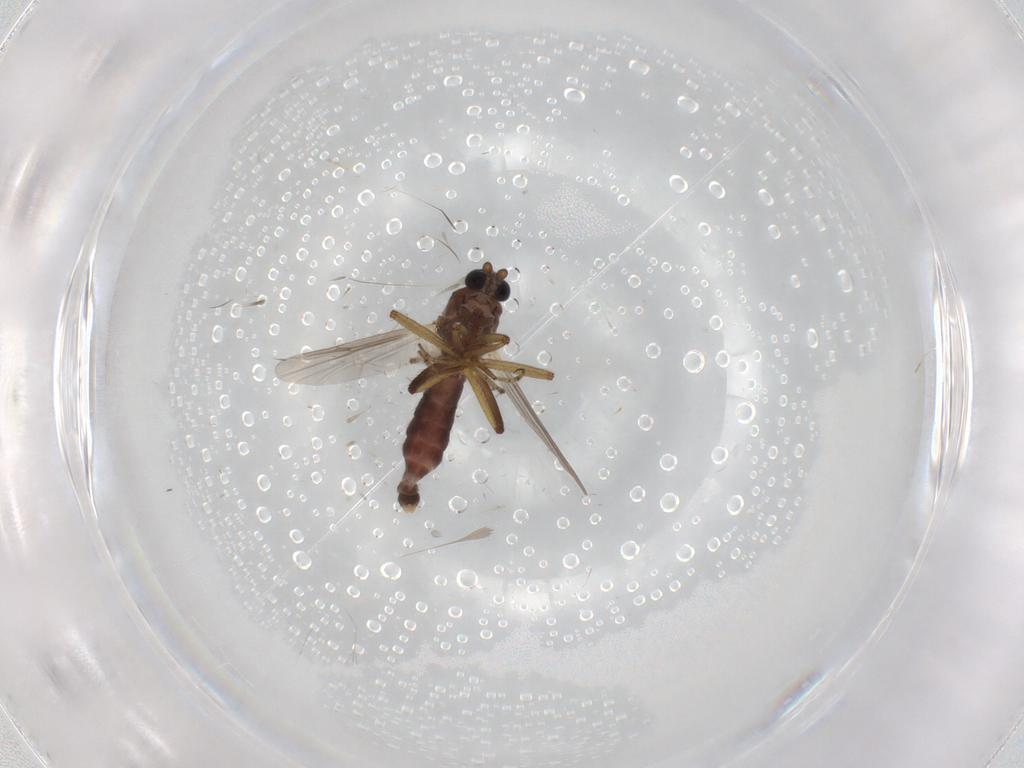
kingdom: Animalia
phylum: Arthropoda
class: Insecta
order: Diptera
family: Ceratopogonidae
